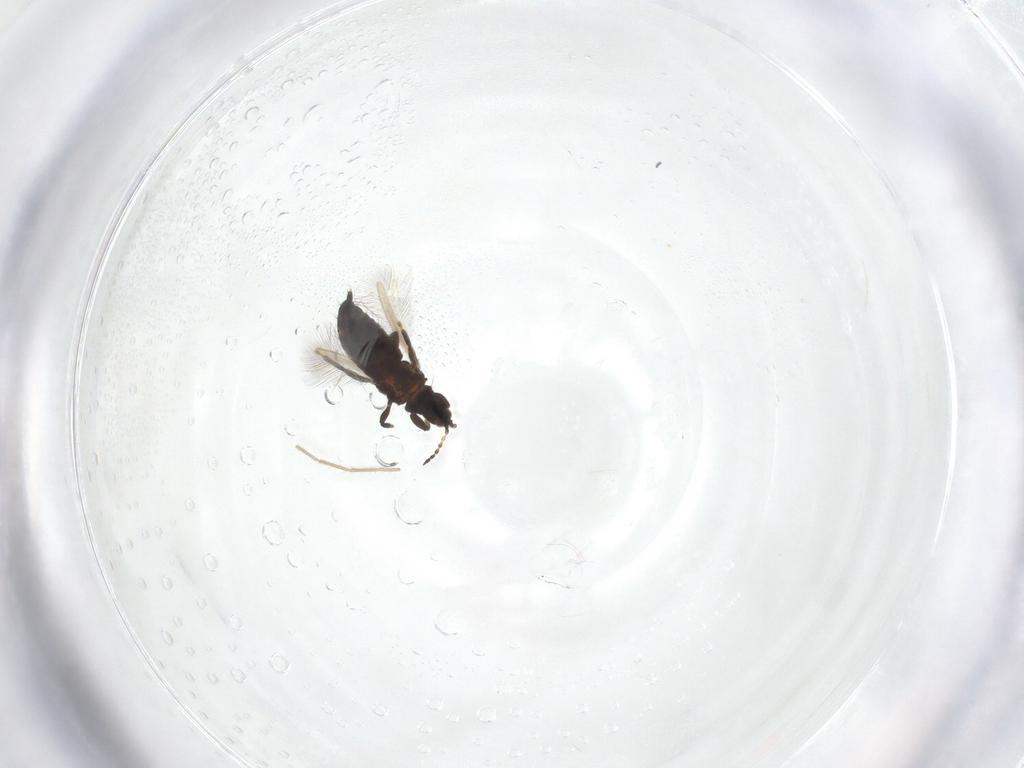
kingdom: Animalia
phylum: Arthropoda
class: Insecta
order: Thysanoptera
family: Phlaeothripidae
